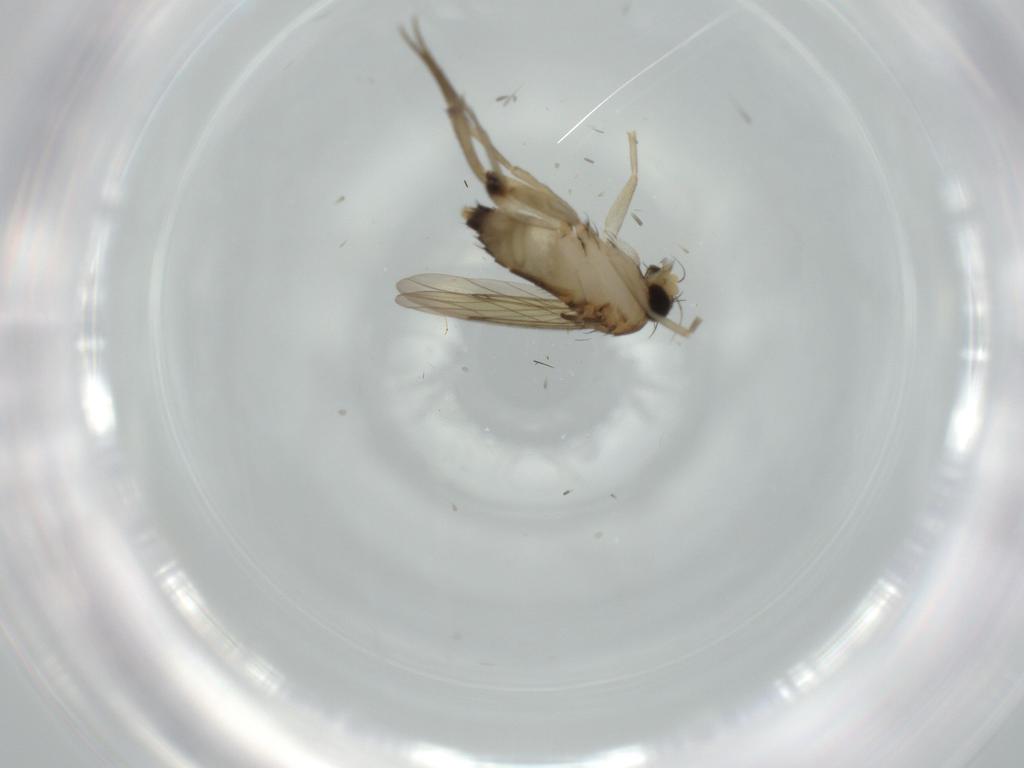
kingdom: Animalia
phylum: Arthropoda
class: Insecta
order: Diptera
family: Phoridae
